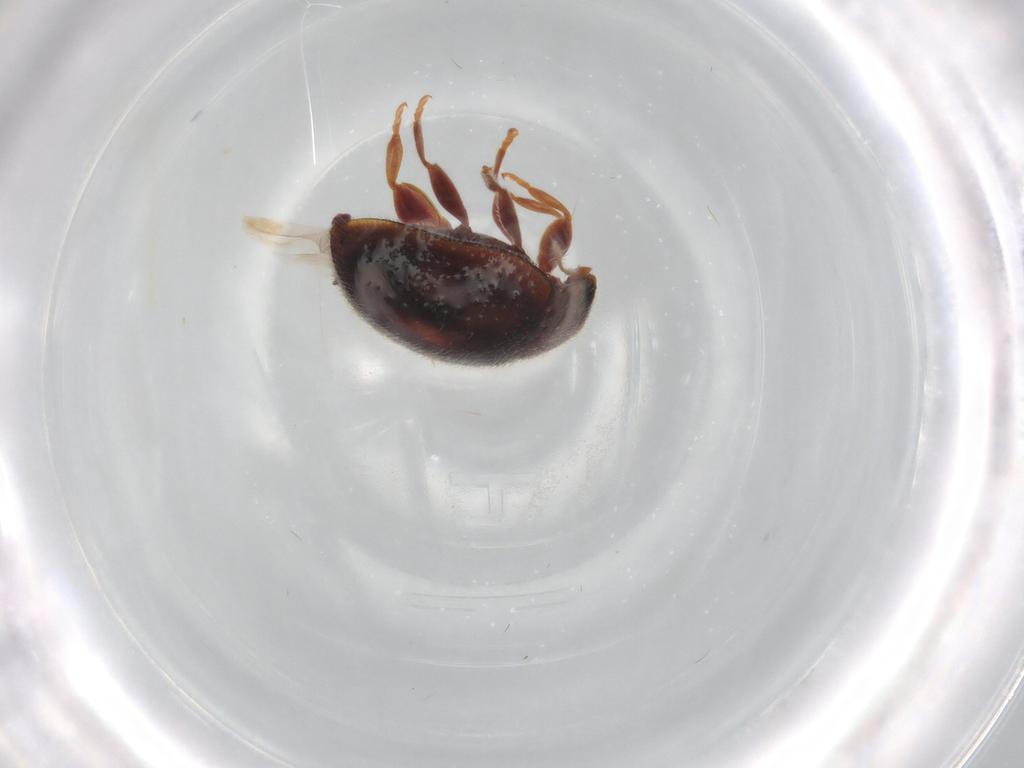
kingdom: Animalia
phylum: Arthropoda
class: Insecta
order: Coleoptera
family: Coccinellidae
